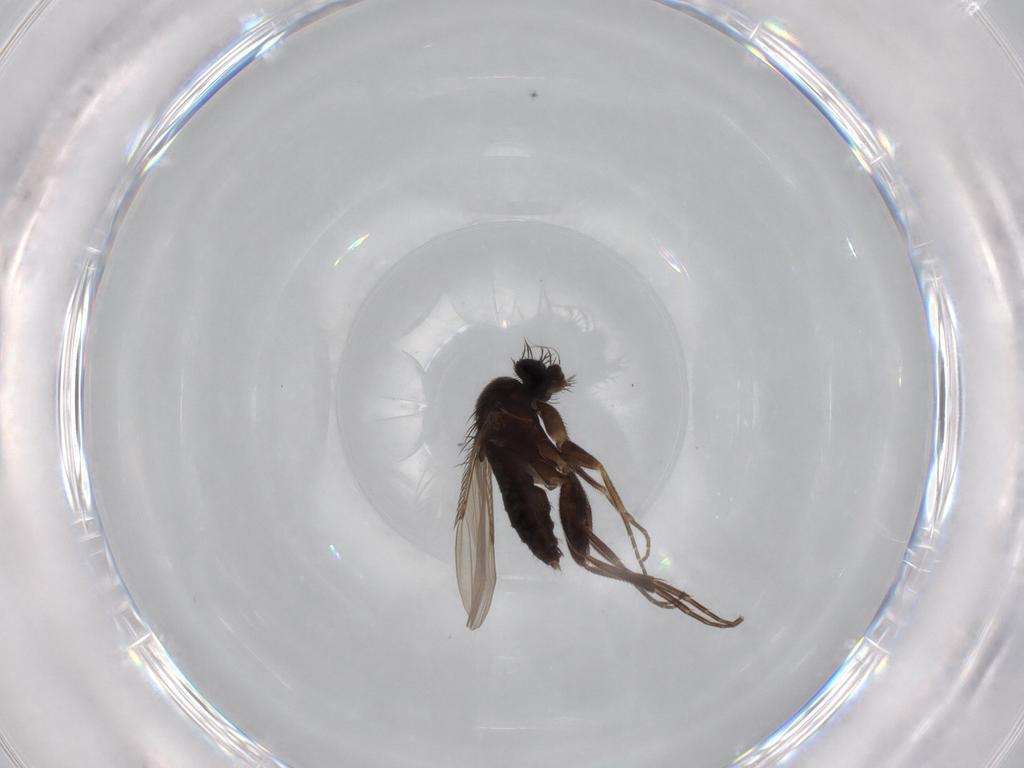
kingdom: Animalia
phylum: Arthropoda
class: Insecta
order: Diptera
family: Phoridae
